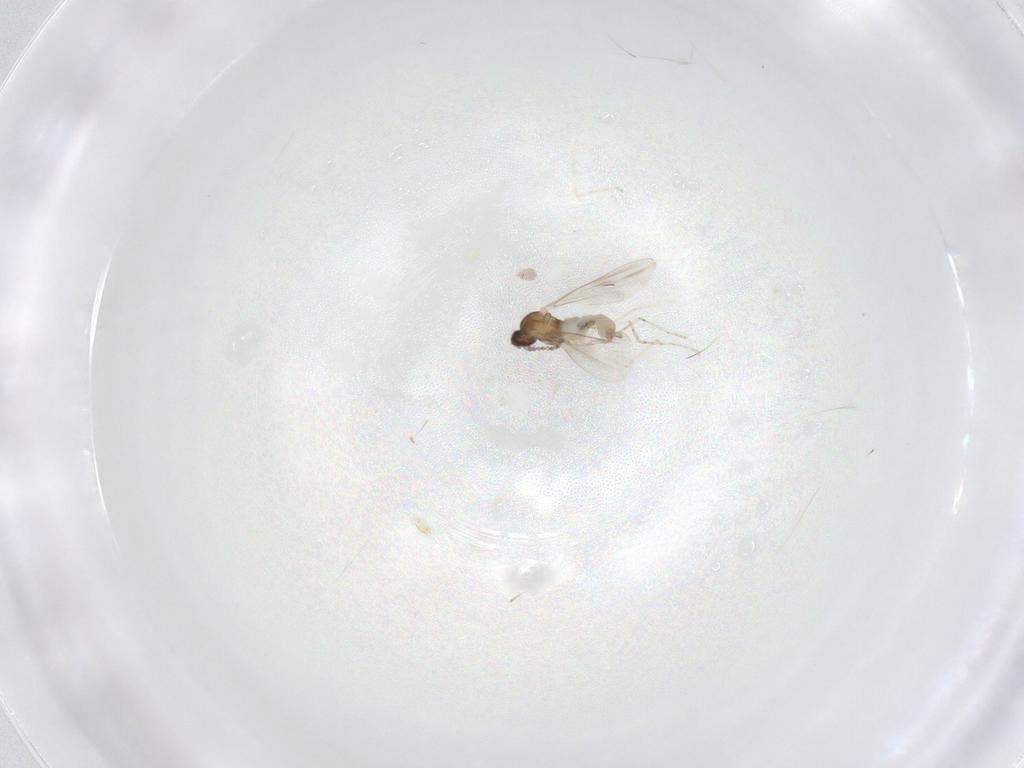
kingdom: Animalia
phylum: Arthropoda
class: Insecta
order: Diptera
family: Cecidomyiidae
